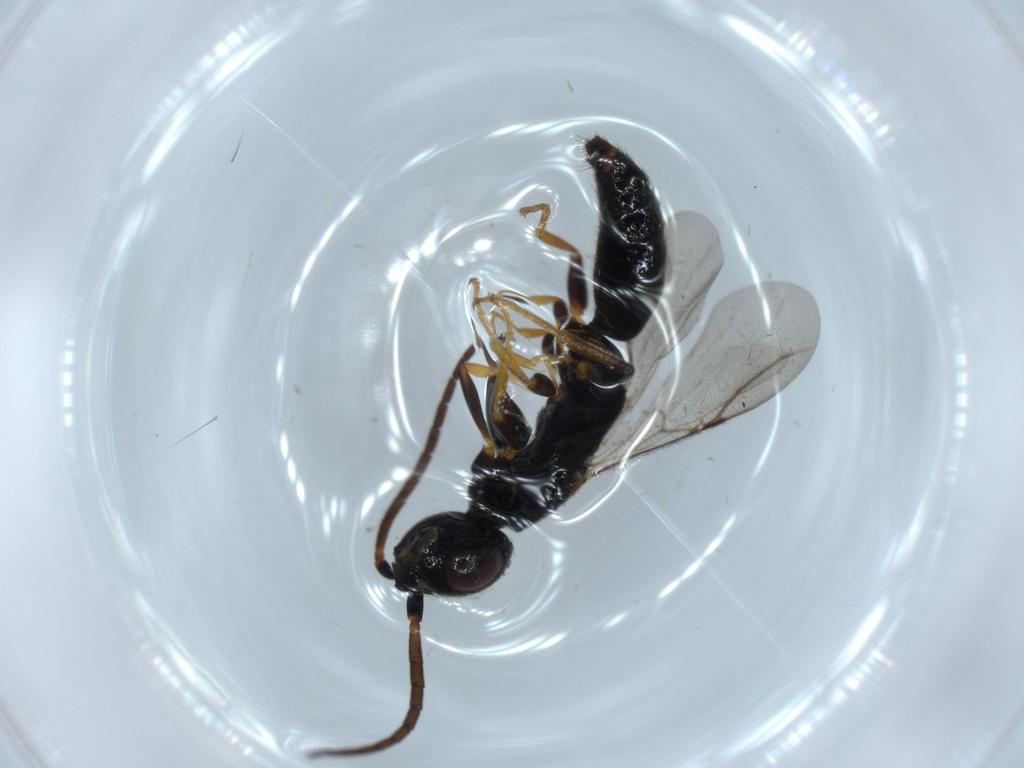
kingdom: Animalia
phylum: Arthropoda
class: Insecta
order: Hymenoptera
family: Bethylidae
